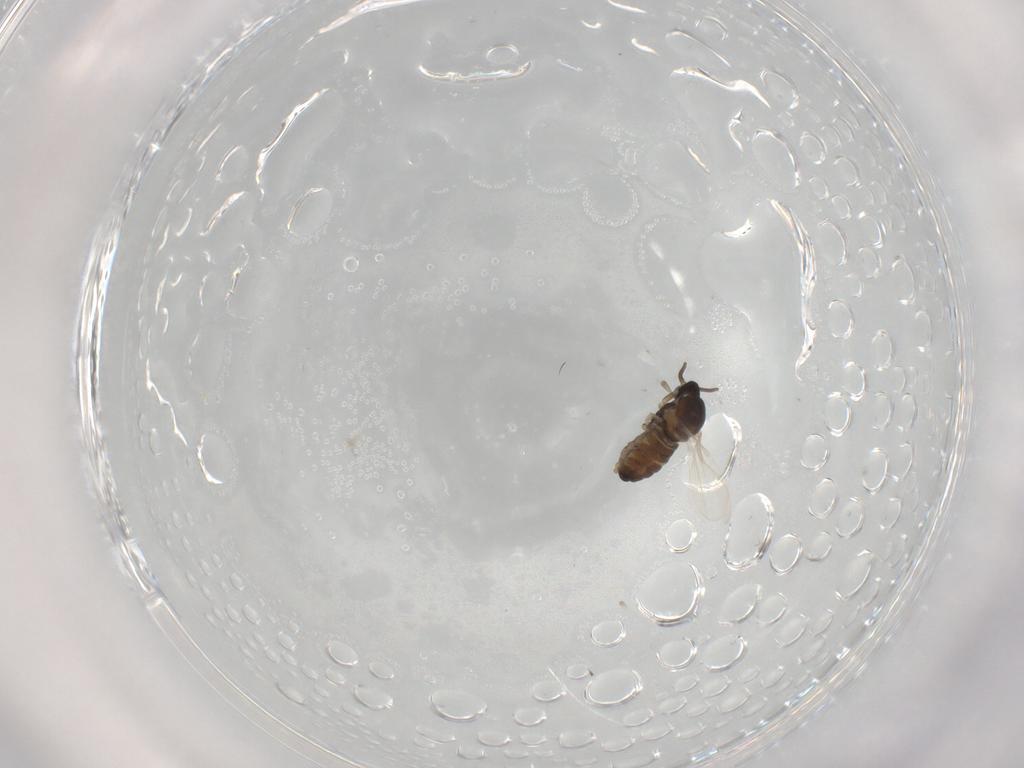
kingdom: Animalia
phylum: Arthropoda
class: Insecta
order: Diptera
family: Cecidomyiidae
